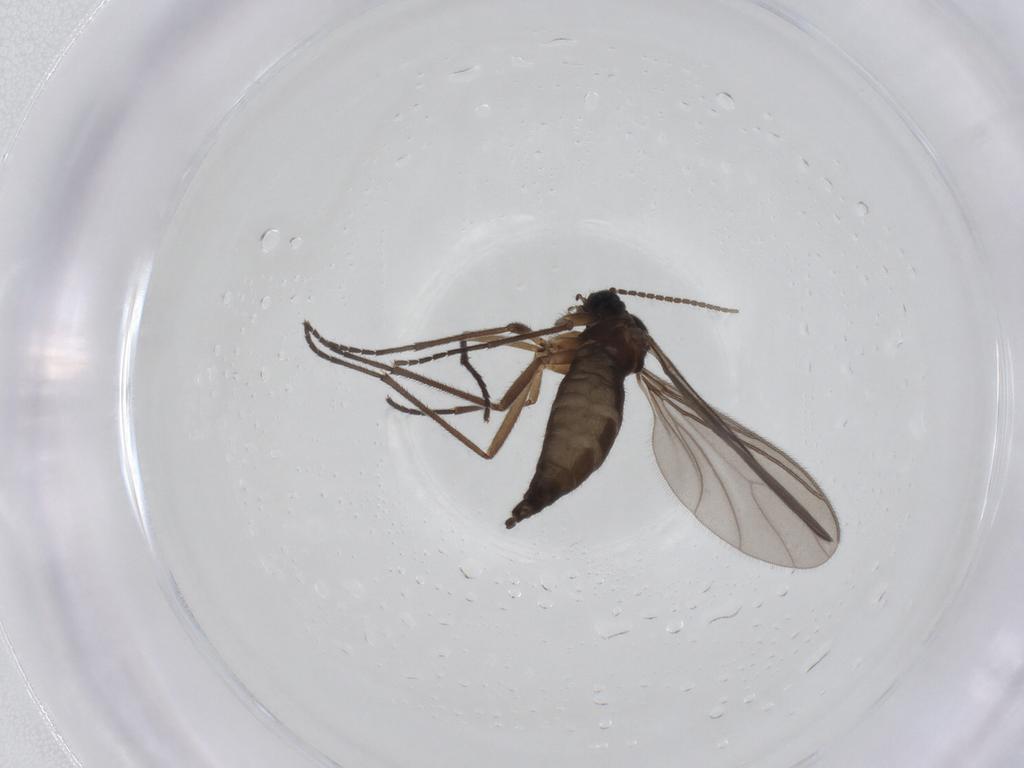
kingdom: Animalia
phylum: Arthropoda
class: Insecta
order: Diptera
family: Sciaridae
